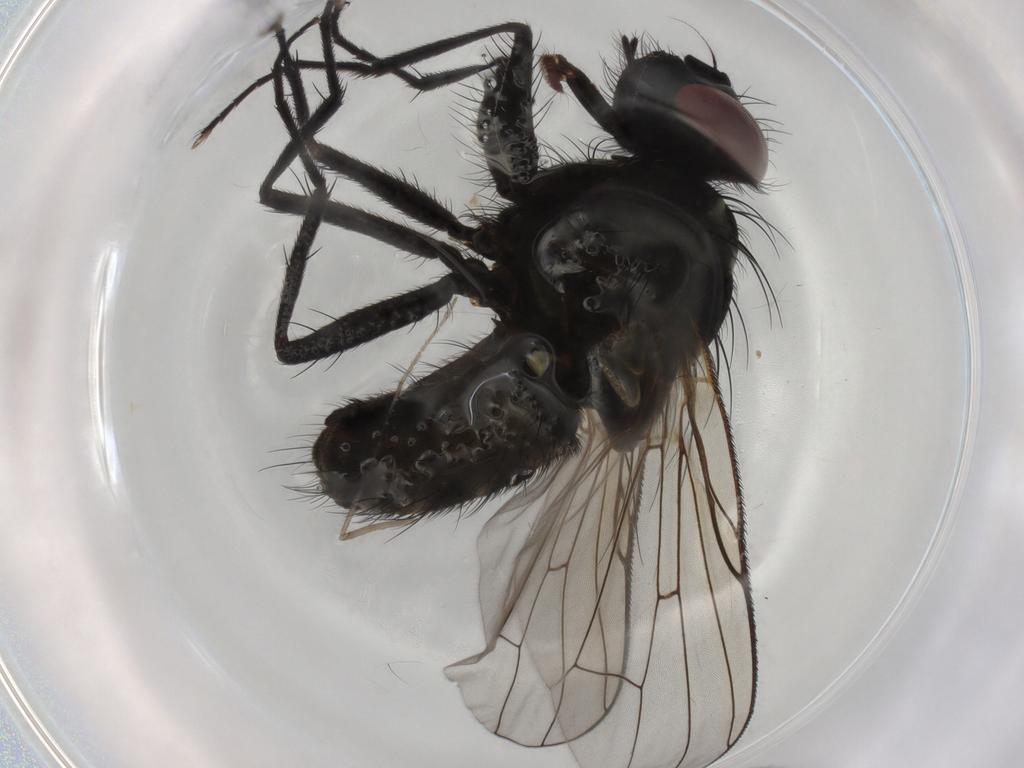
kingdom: Animalia
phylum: Arthropoda
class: Insecta
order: Diptera
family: Muscidae
